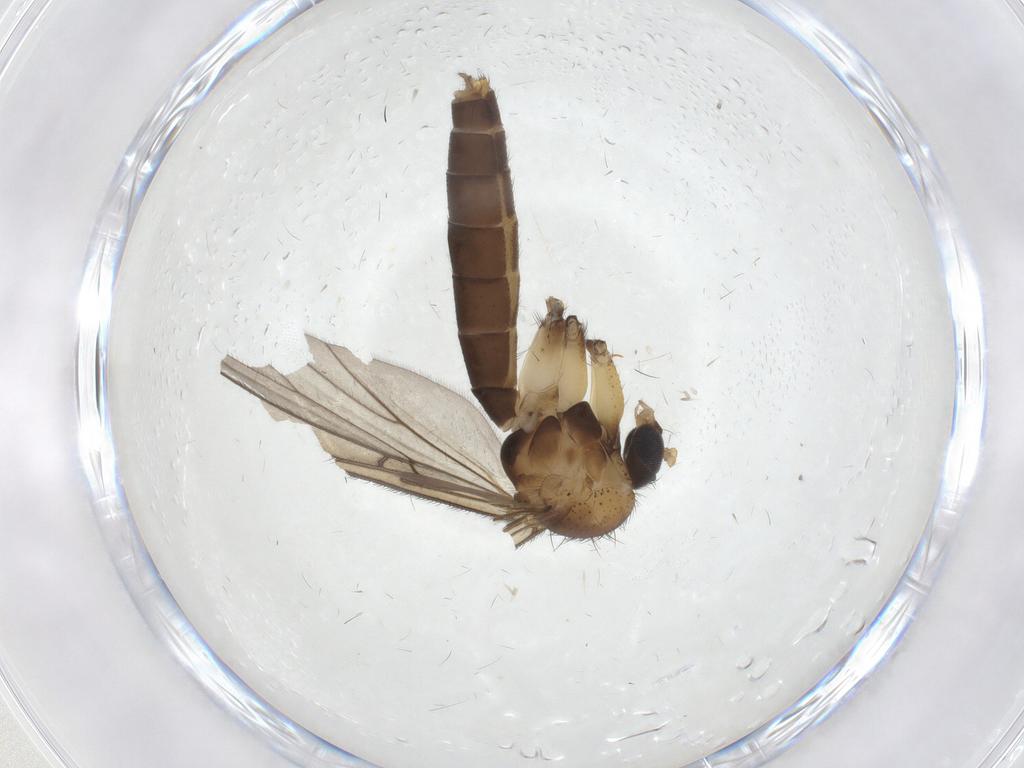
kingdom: Animalia
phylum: Arthropoda
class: Insecta
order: Diptera
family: Mycetophilidae
